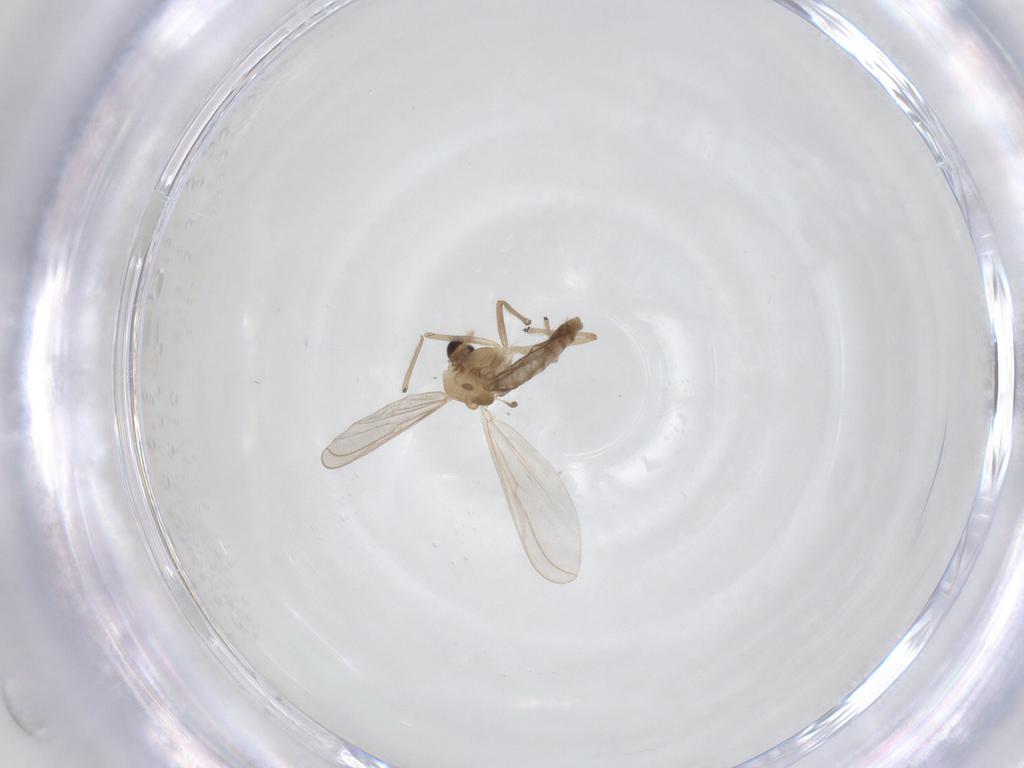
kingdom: Animalia
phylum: Arthropoda
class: Insecta
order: Diptera
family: Chironomidae
